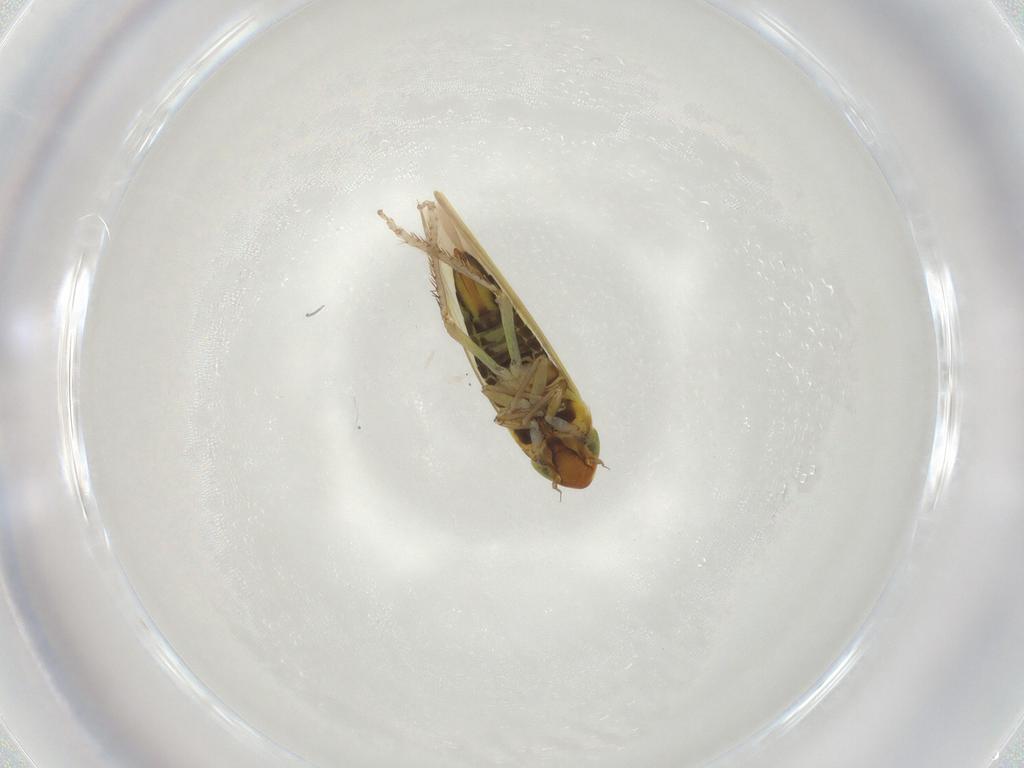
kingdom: Animalia
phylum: Arthropoda
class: Insecta
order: Hemiptera
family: Cicadellidae
